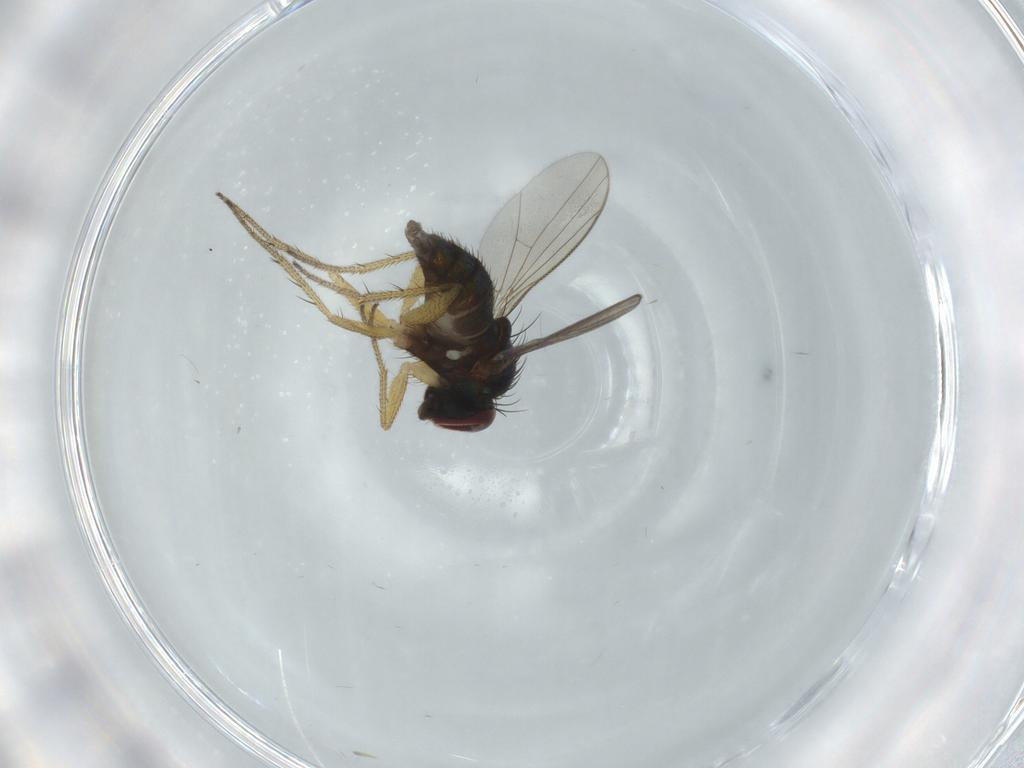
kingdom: Animalia
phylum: Arthropoda
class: Insecta
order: Diptera
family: Dolichopodidae
